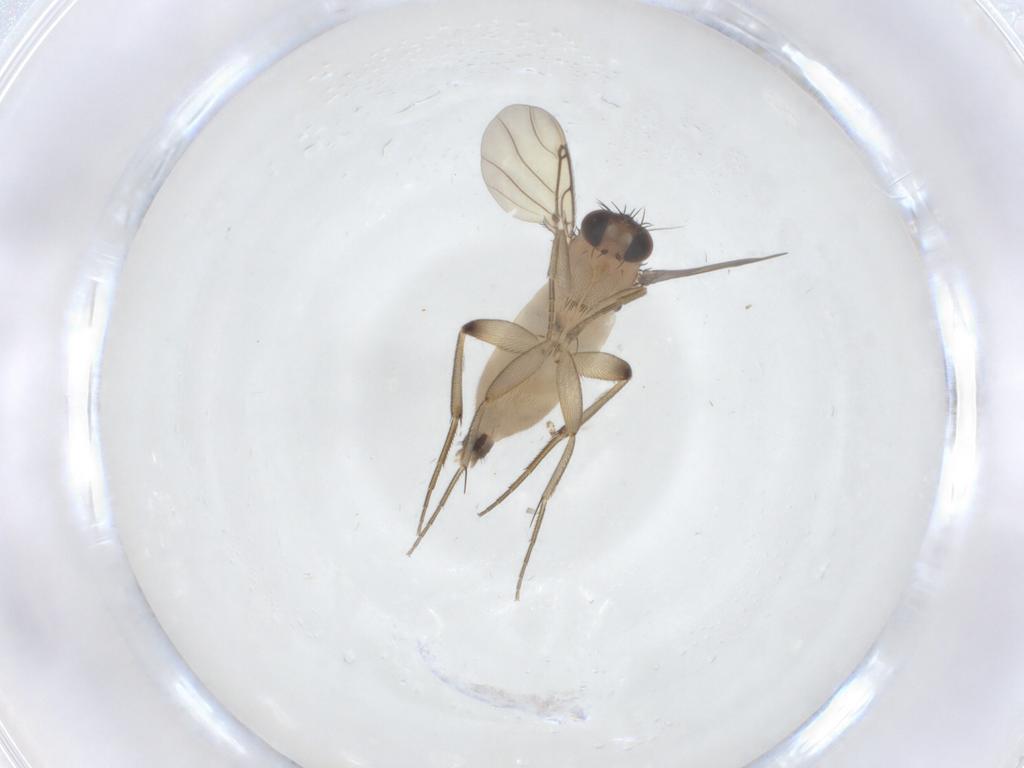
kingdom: Animalia
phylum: Arthropoda
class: Insecta
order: Diptera
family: Phoridae
